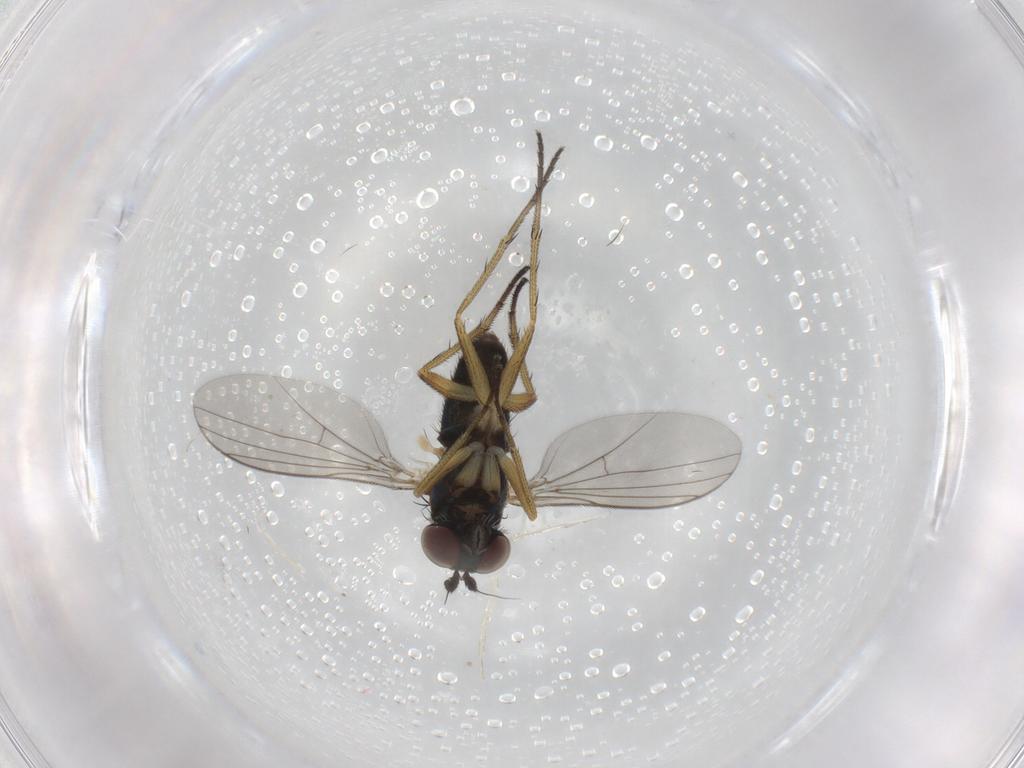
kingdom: Animalia
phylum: Arthropoda
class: Insecta
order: Diptera
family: Dolichopodidae
